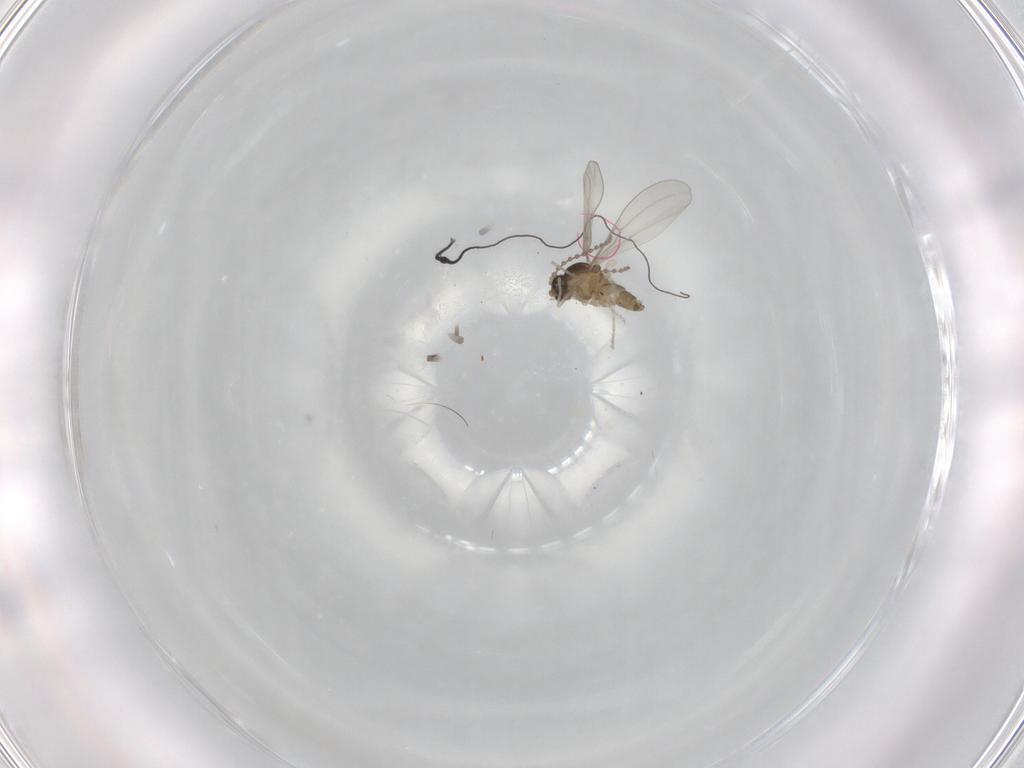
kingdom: Animalia
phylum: Arthropoda
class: Insecta
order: Diptera
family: Cecidomyiidae
